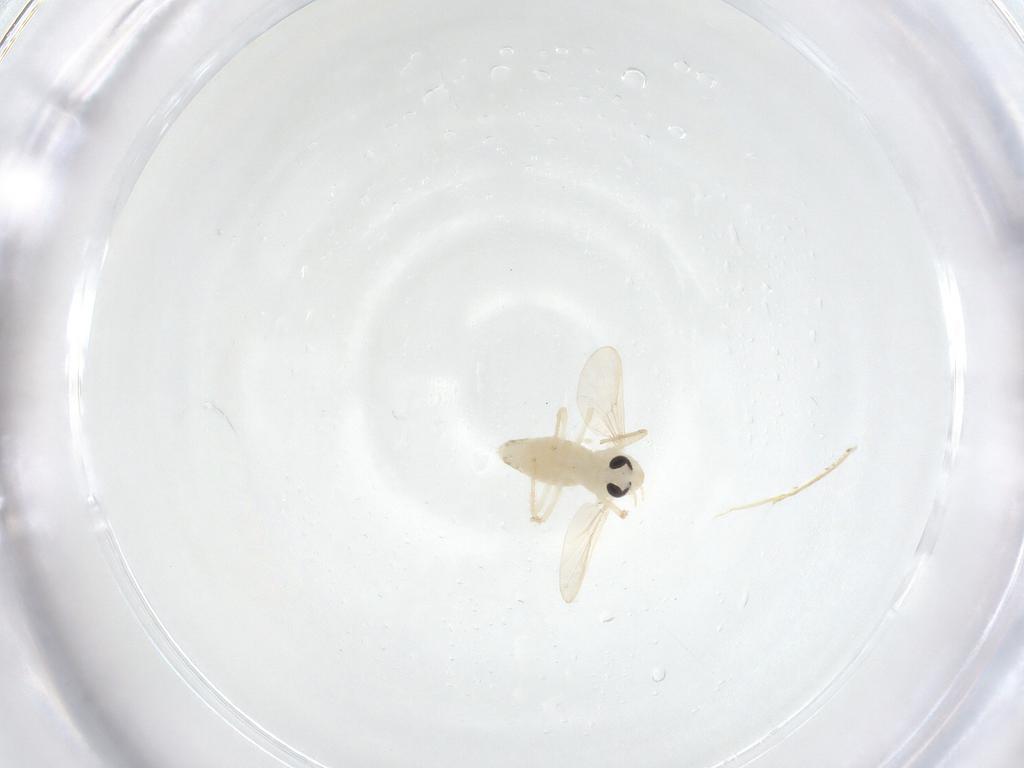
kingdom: Animalia
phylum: Arthropoda
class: Insecta
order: Diptera
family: Culicidae
